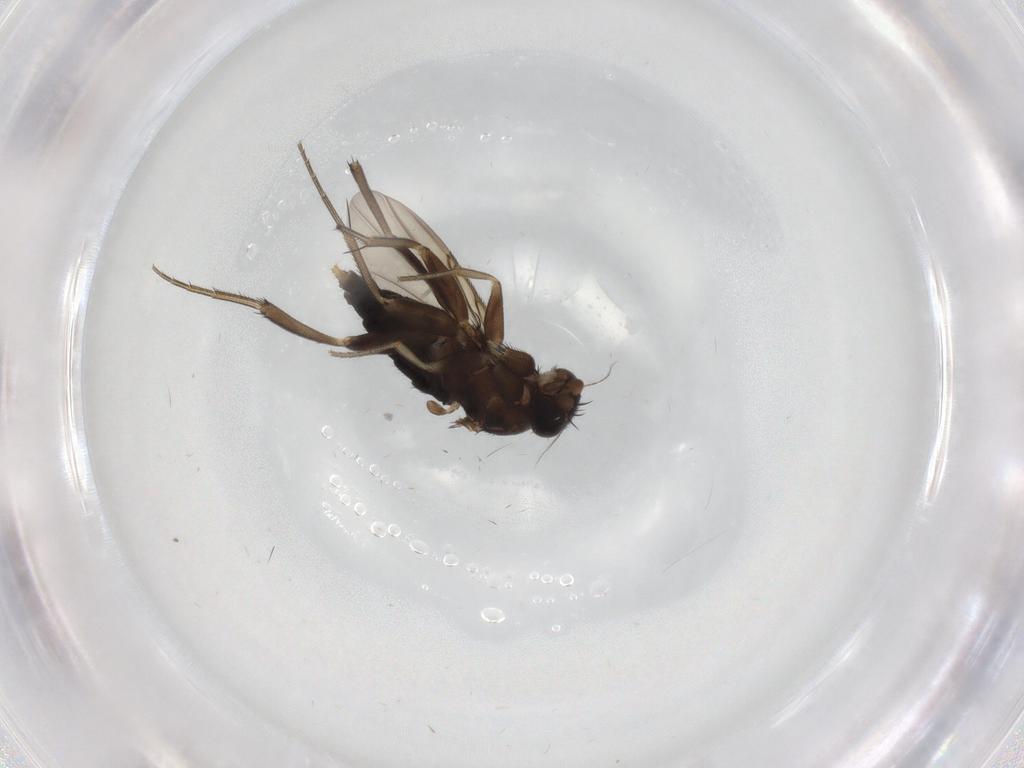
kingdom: Animalia
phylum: Arthropoda
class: Insecta
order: Diptera
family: Phoridae
